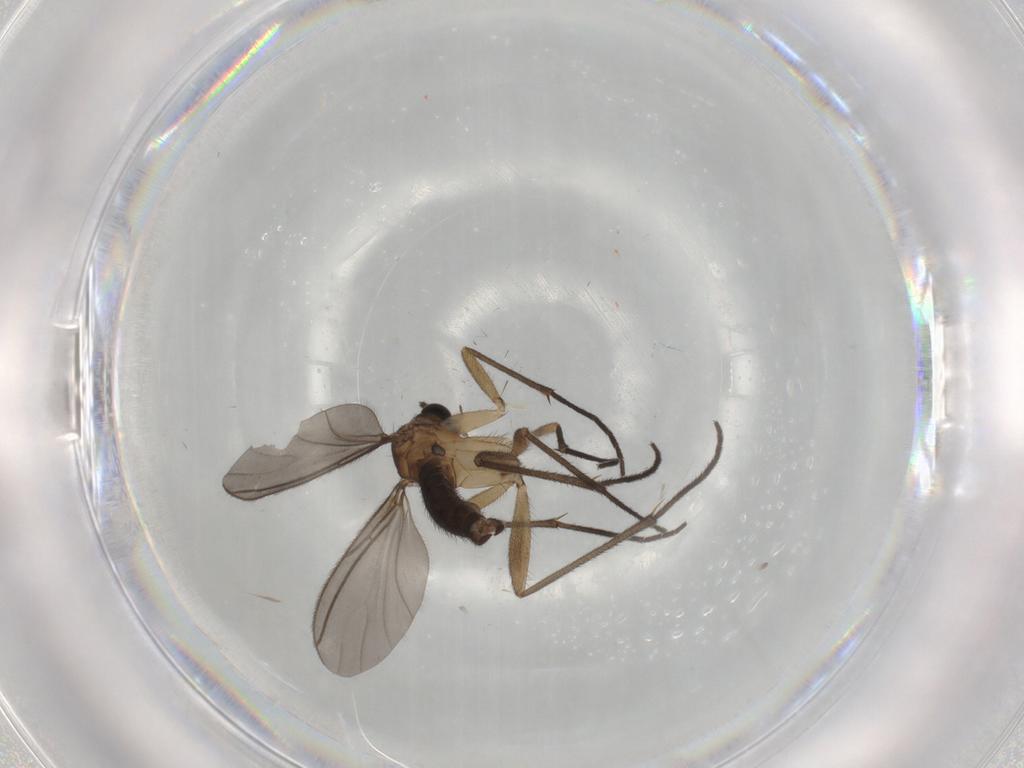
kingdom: Animalia
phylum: Arthropoda
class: Insecta
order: Diptera
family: Sciaridae
